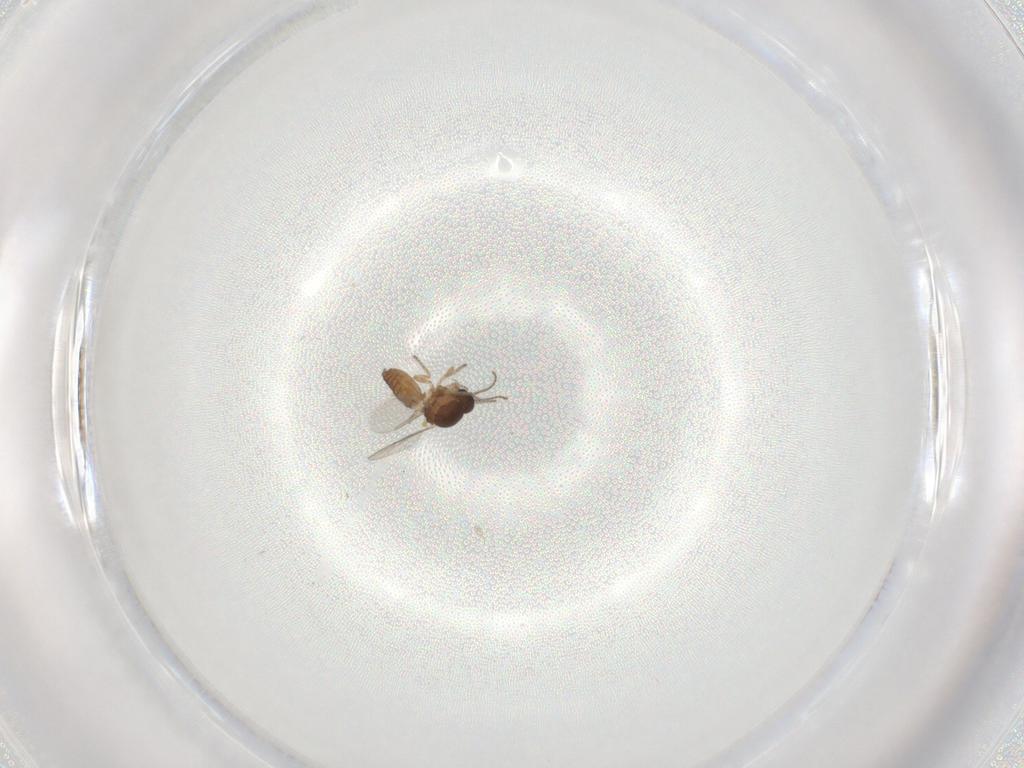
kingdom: Animalia
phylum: Arthropoda
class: Insecta
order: Diptera
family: Ceratopogonidae
